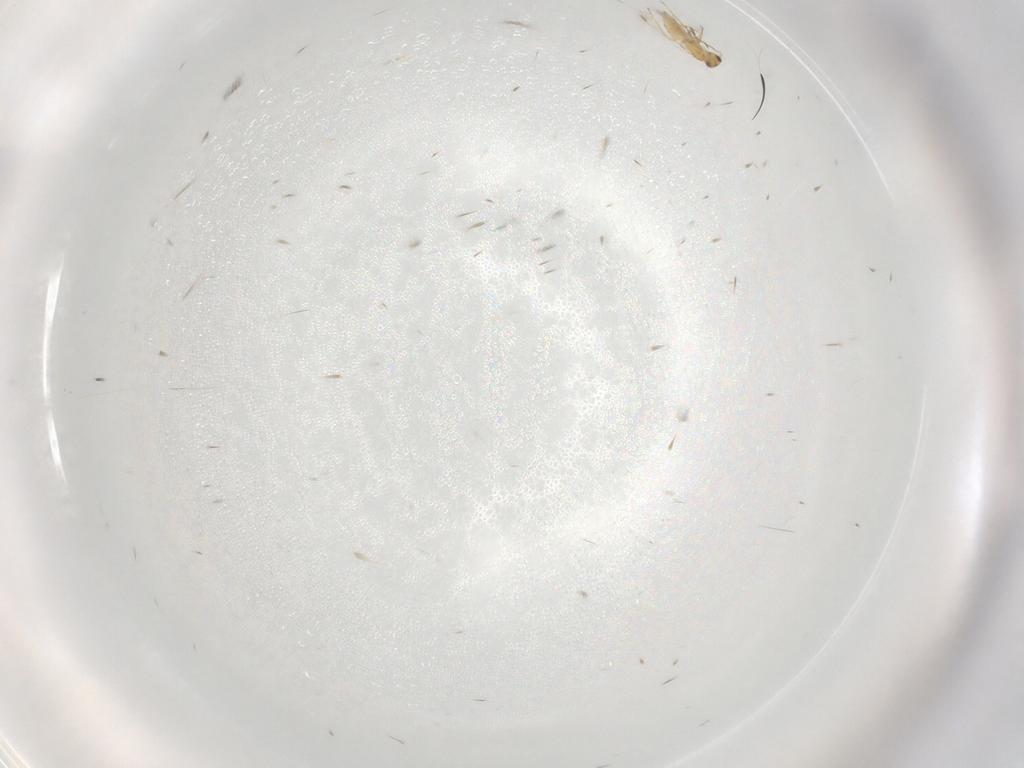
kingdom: Animalia
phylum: Arthropoda
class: Insecta
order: Hymenoptera
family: Mymaridae
